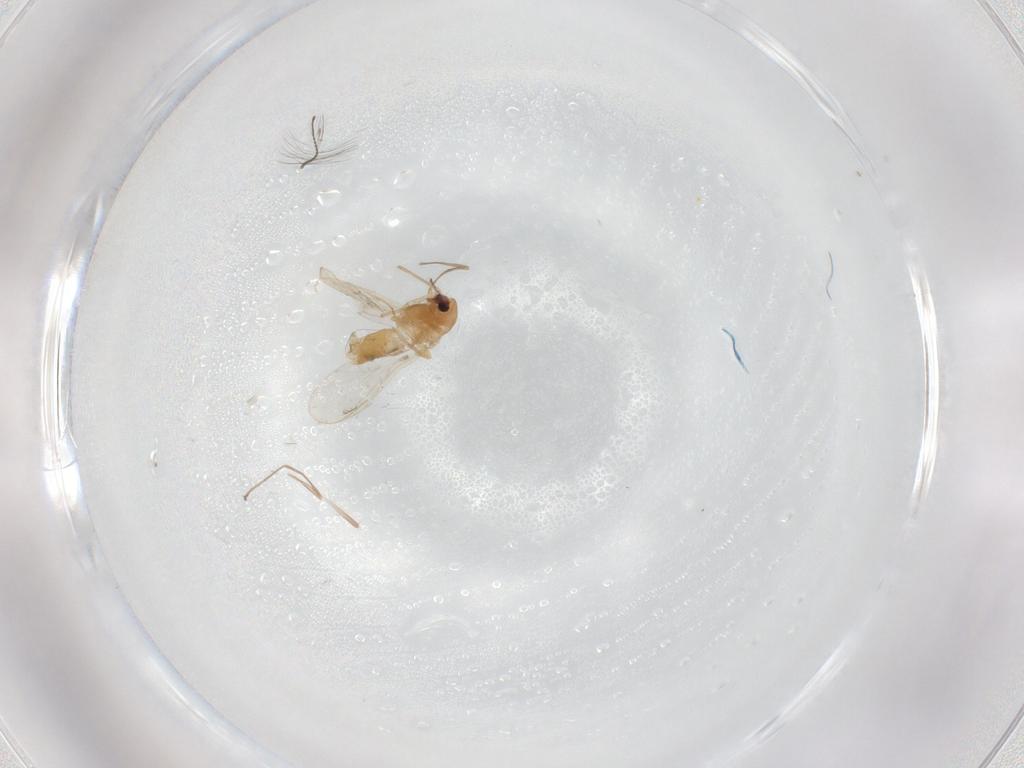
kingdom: Animalia
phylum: Arthropoda
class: Insecta
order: Diptera
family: Chironomidae
